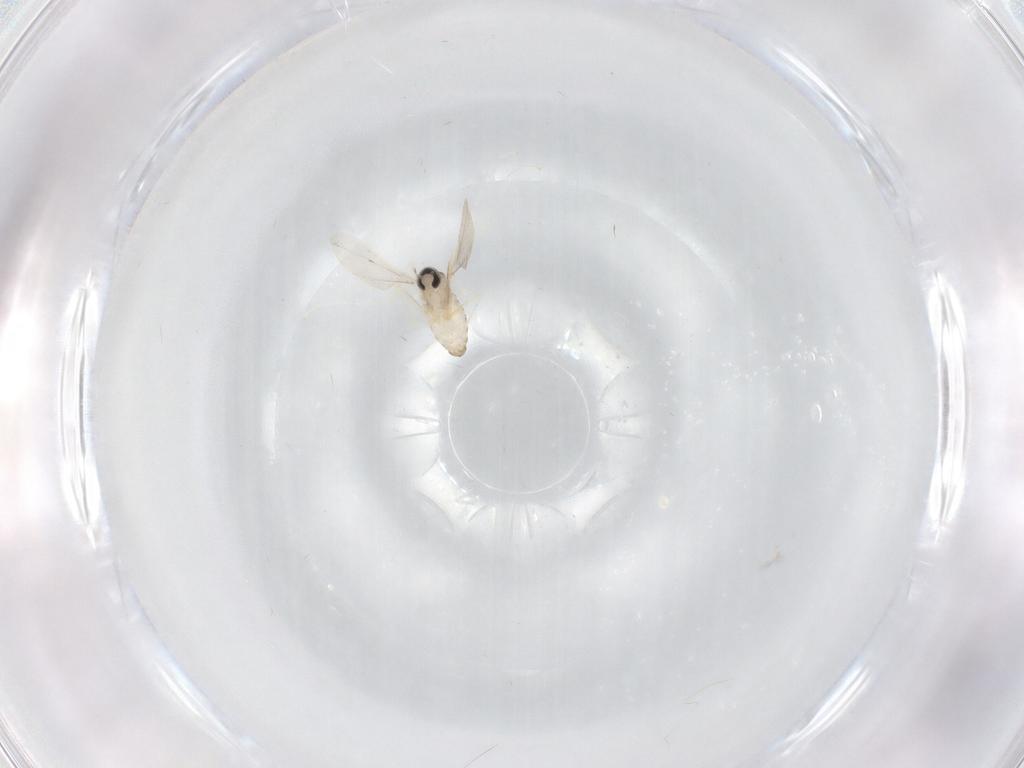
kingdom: Animalia
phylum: Arthropoda
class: Insecta
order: Diptera
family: Cecidomyiidae
